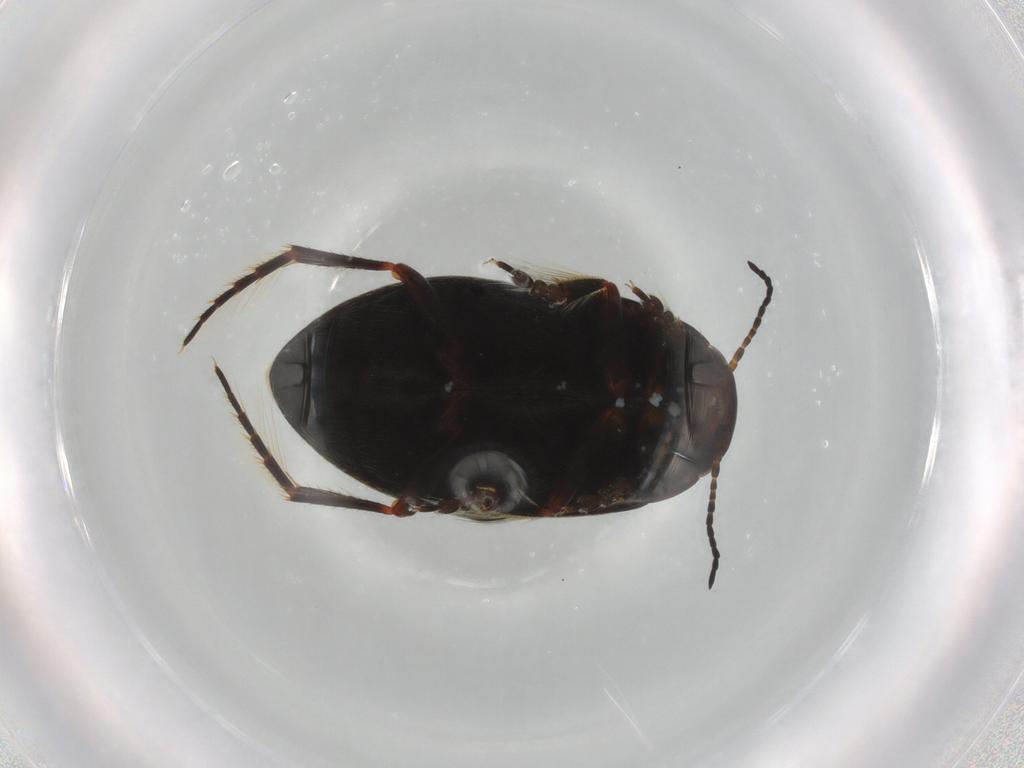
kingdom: Animalia
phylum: Arthropoda
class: Insecta
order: Coleoptera
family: Dytiscidae
